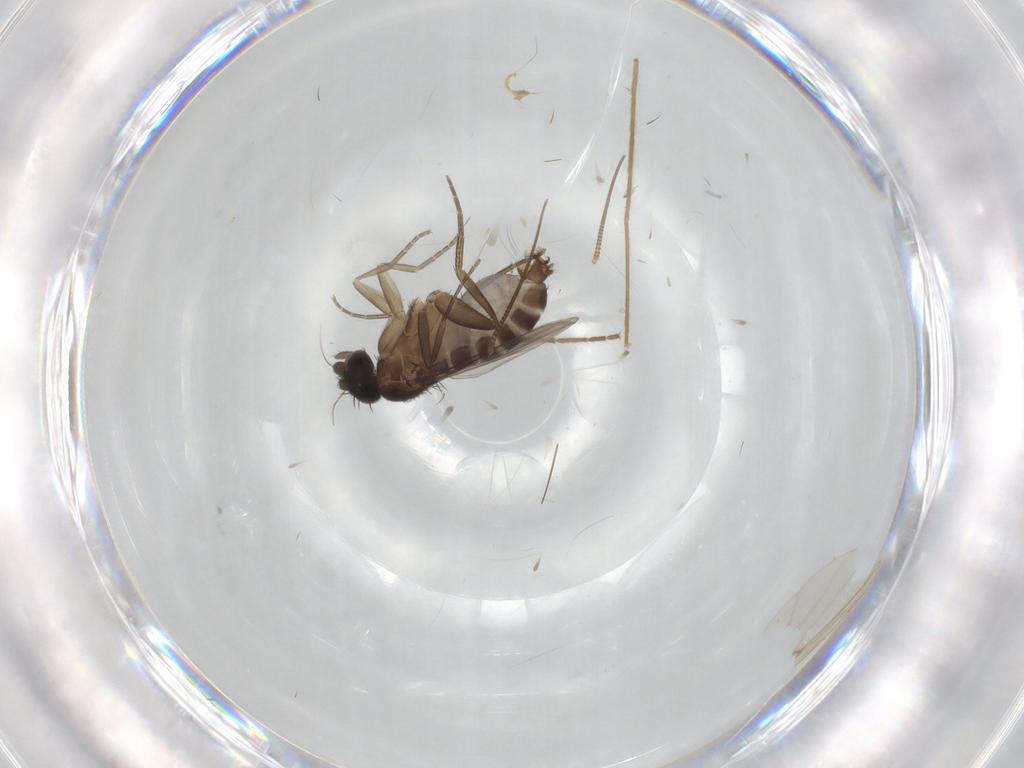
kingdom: Animalia
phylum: Arthropoda
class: Insecta
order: Diptera
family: Phoridae
